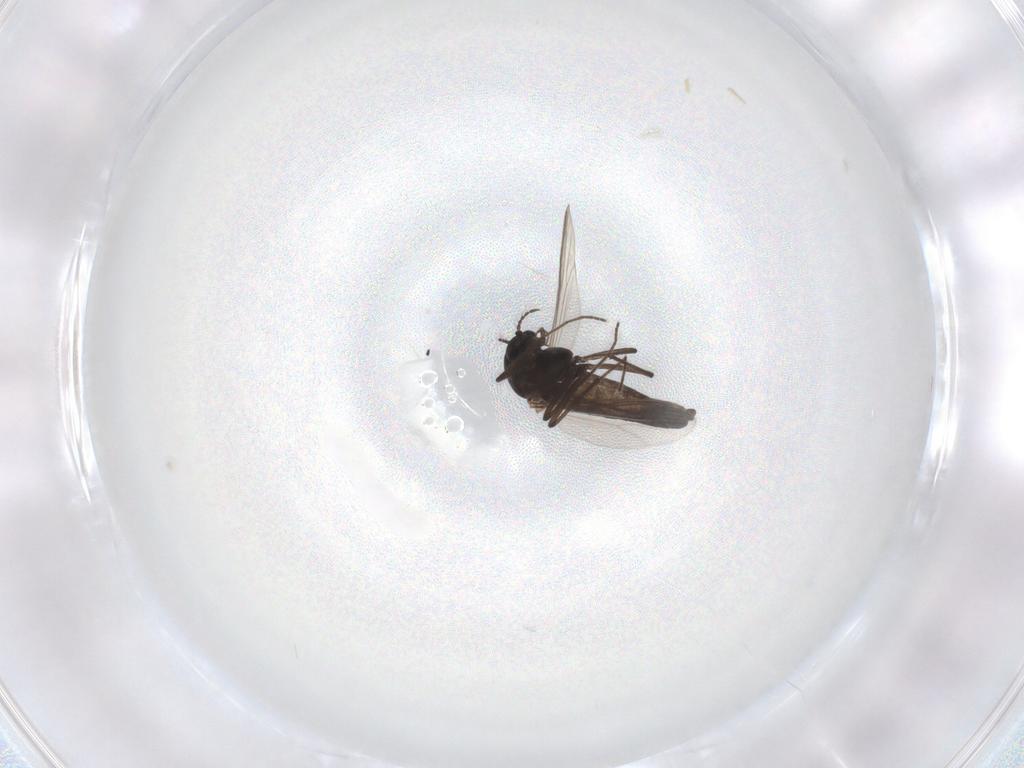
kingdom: Animalia
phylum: Arthropoda
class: Insecta
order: Diptera
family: Chironomidae
